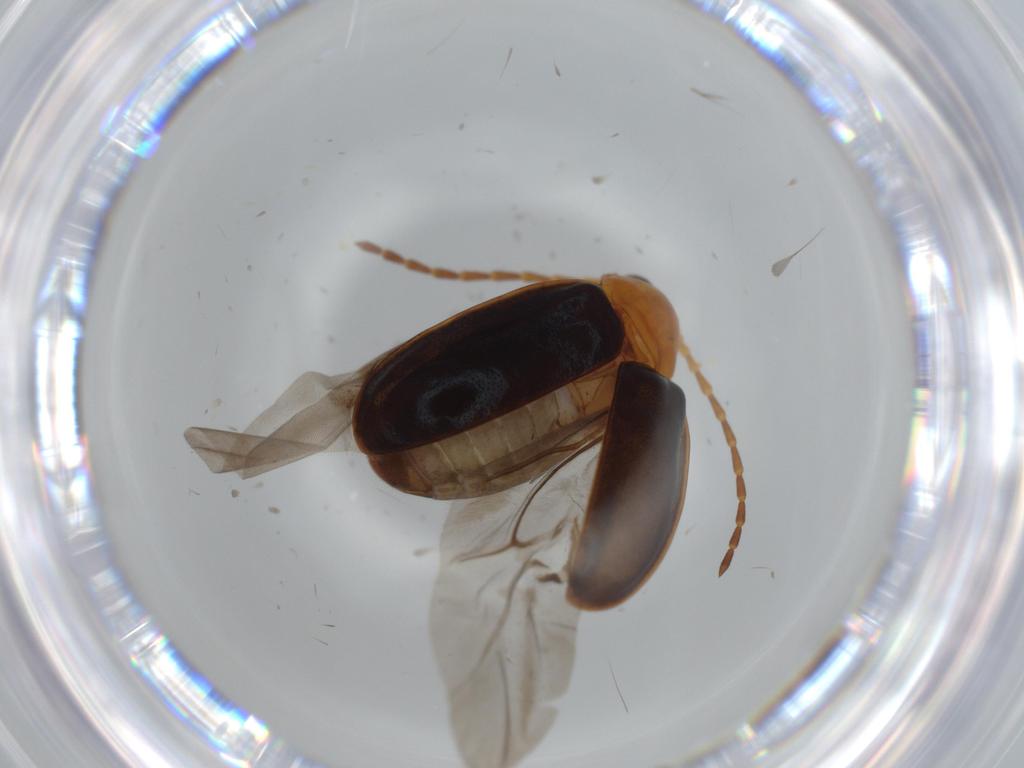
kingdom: Animalia
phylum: Arthropoda
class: Insecta
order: Coleoptera
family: Chrysomelidae
